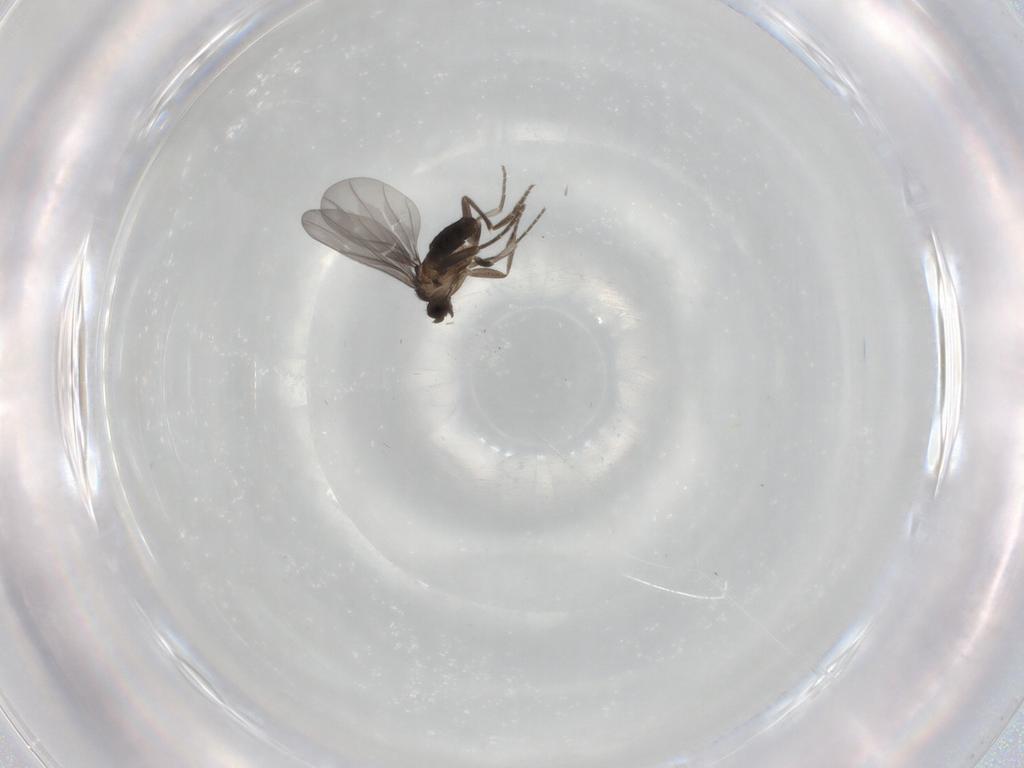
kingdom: Animalia
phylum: Arthropoda
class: Insecta
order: Diptera
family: Phoridae
